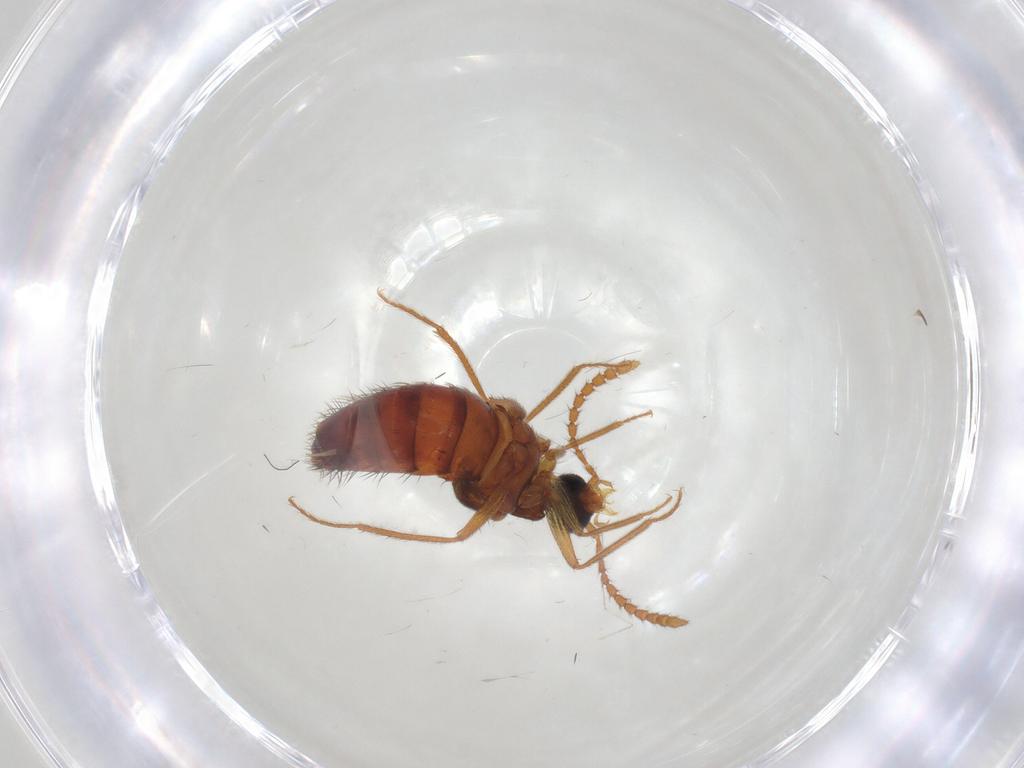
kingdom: Animalia
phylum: Arthropoda
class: Insecta
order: Coleoptera
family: Staphylinidae
